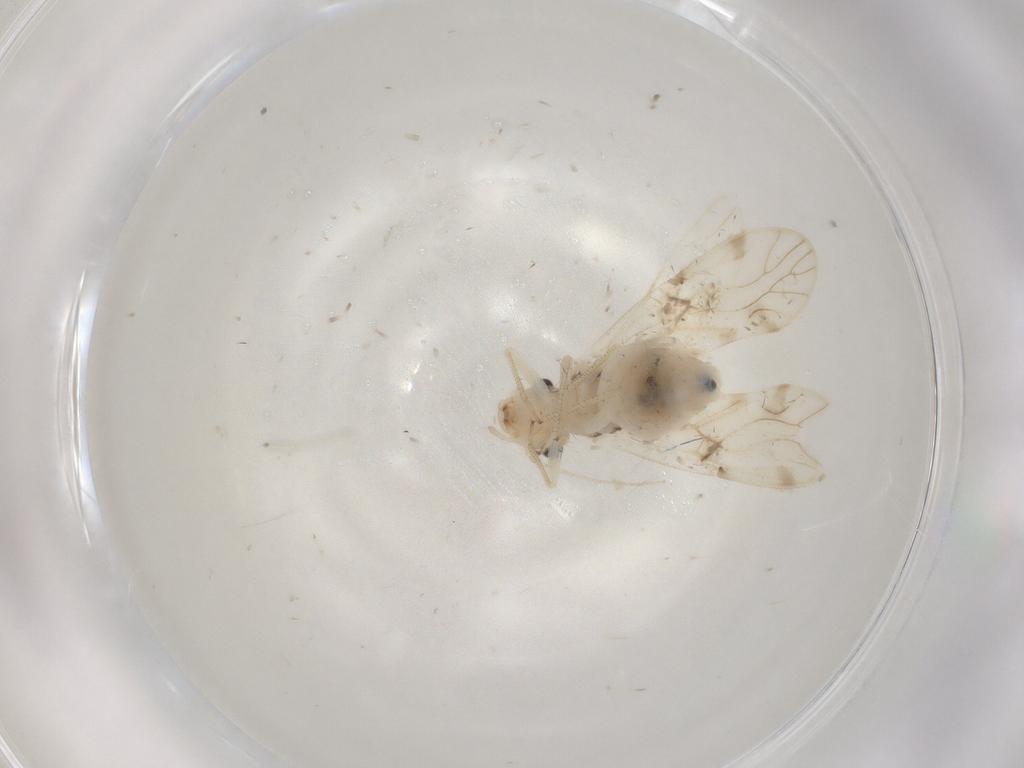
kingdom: Animalia
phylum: Arthropoda
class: Insecta
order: Psocodea
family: Caeciliusidae
